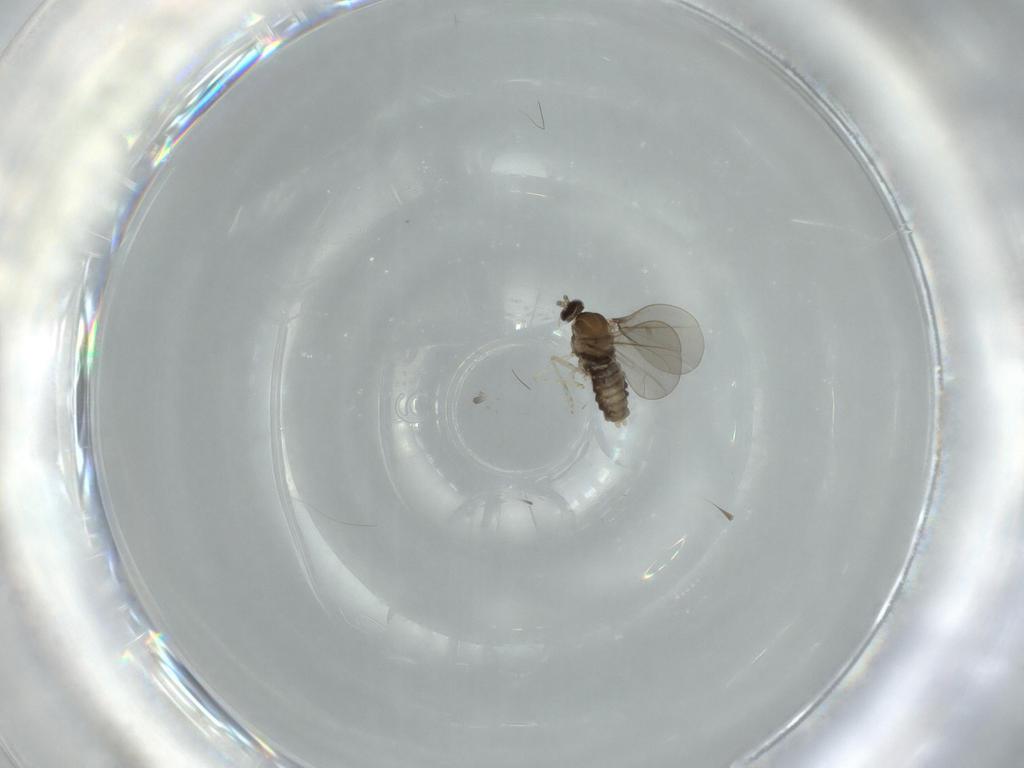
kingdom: Animalia
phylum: Arthropoda
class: Insecta
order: Diptera
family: Cecidomyiidae
